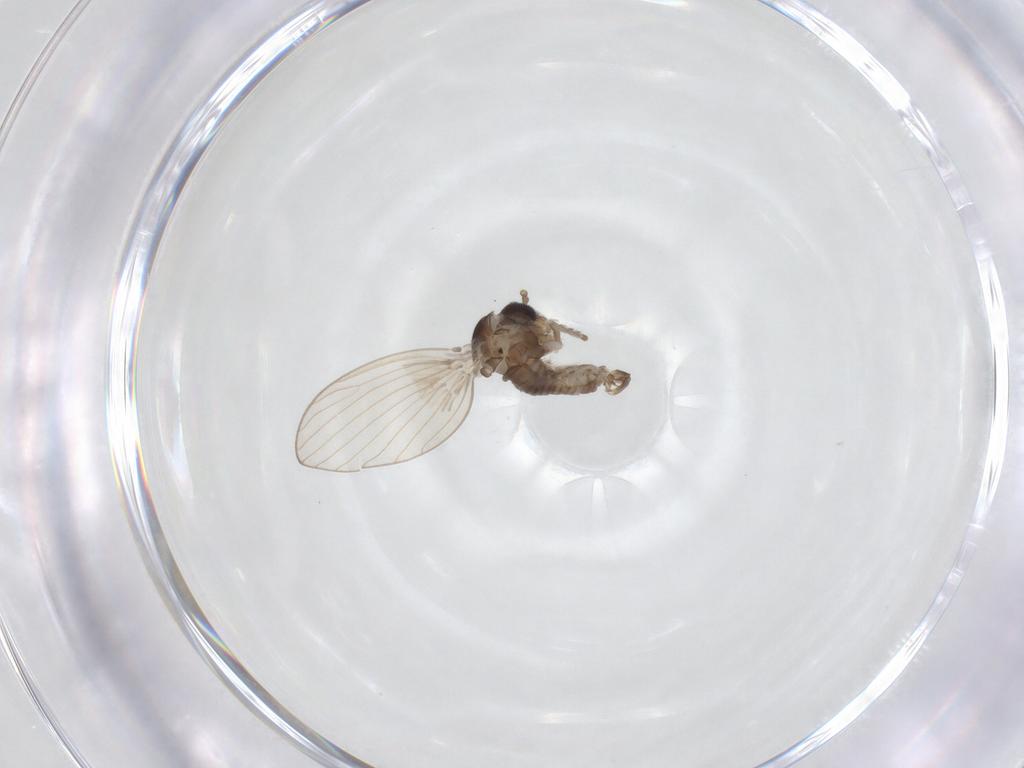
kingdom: Animalia
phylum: Arthropoda
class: Insecta
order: Diptera
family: Psychodidae
